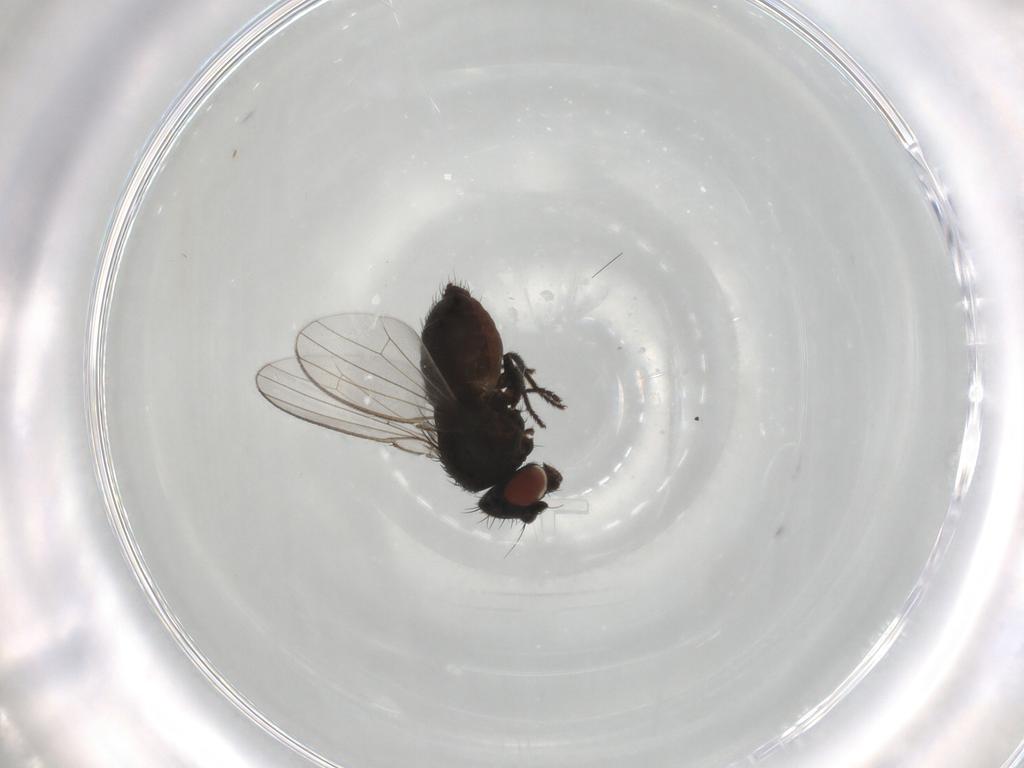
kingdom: Animalia
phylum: Arthropoda
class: Insecta
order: Diptera
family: Milichiidae
